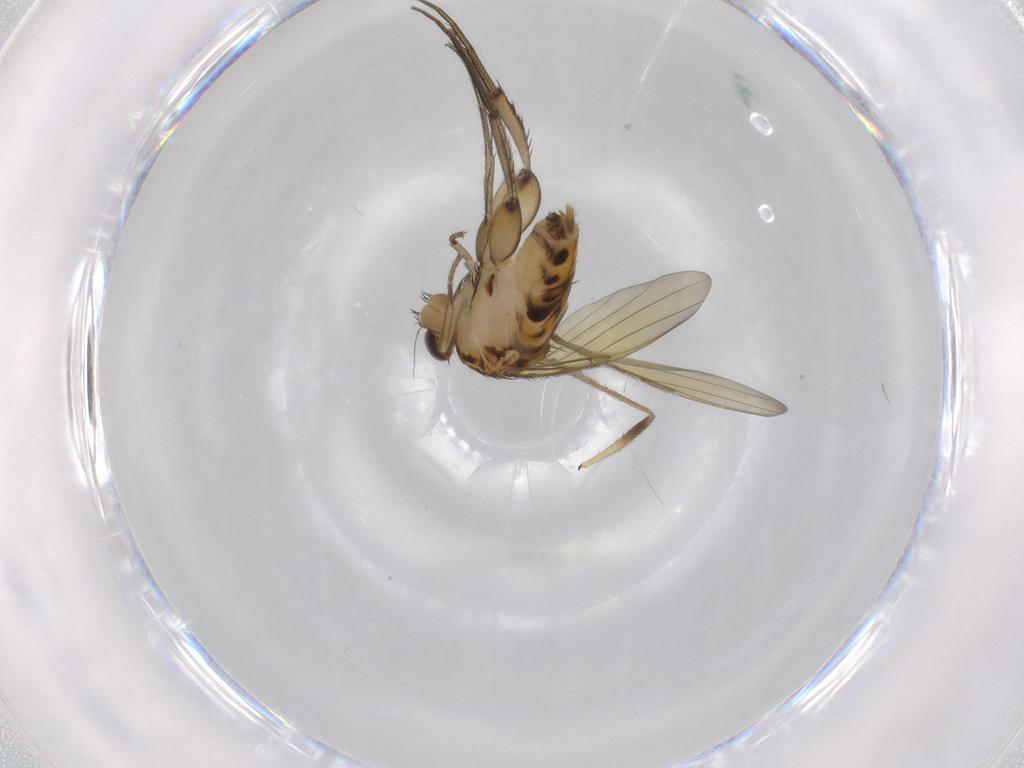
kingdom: Animalia
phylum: Arthropoda
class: Insecta
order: Diptera
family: Phoridae
